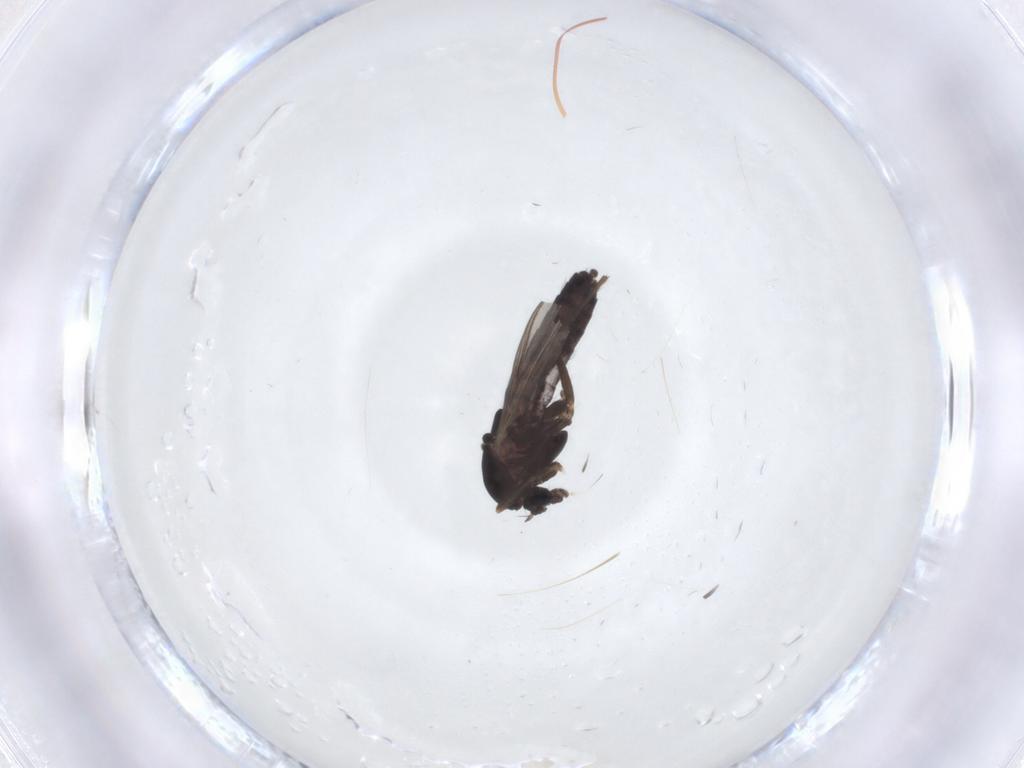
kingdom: Animalia
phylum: Arthropoda
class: Insecta
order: Diptera
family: Chironomidae
